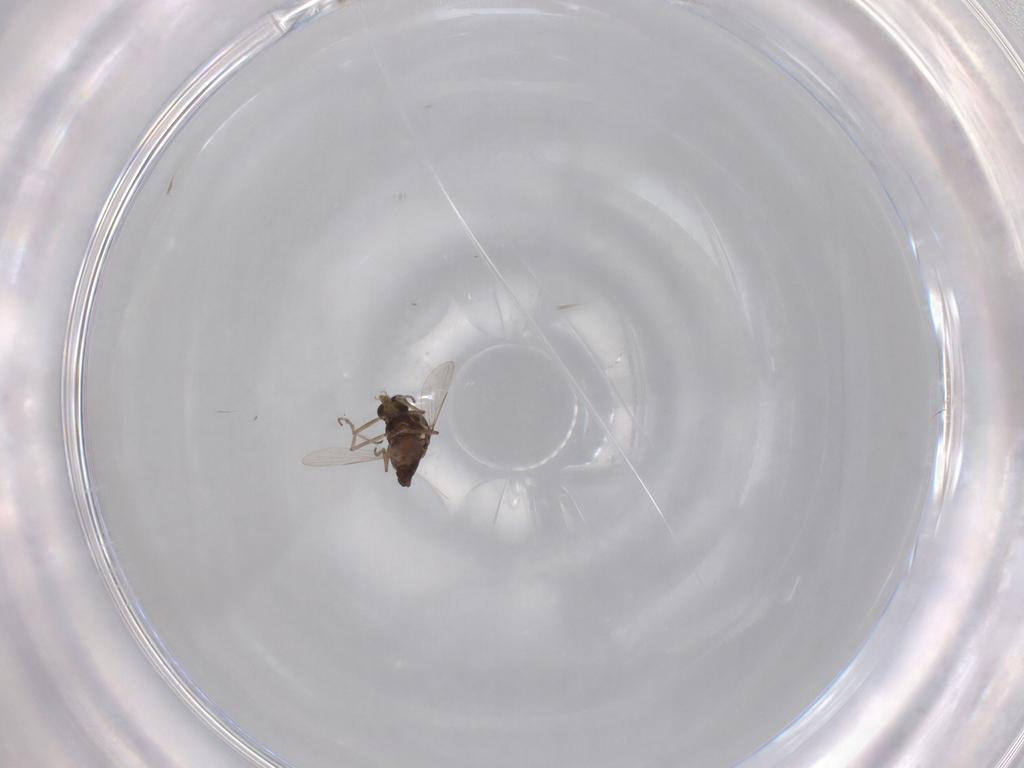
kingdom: Animalia
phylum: Arthropoda
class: Insecta
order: Diptera
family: Ceratopogonidae
